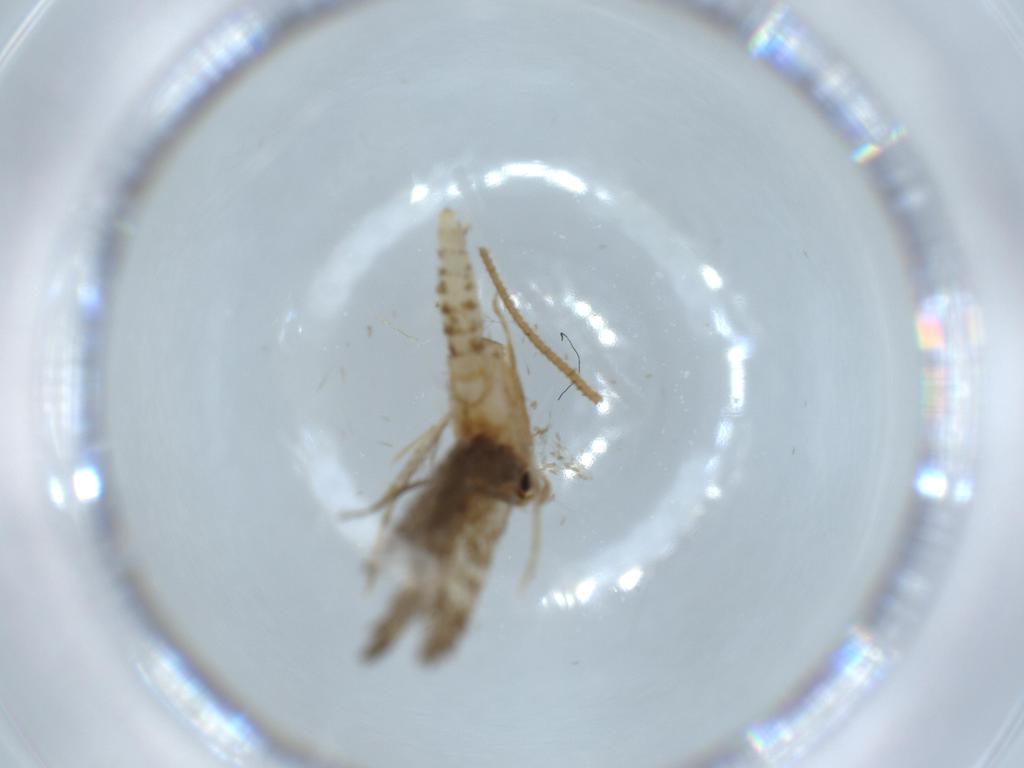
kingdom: Animalia
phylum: Arthropoda
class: Insecta
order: Lepidoptera
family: Tineidae
